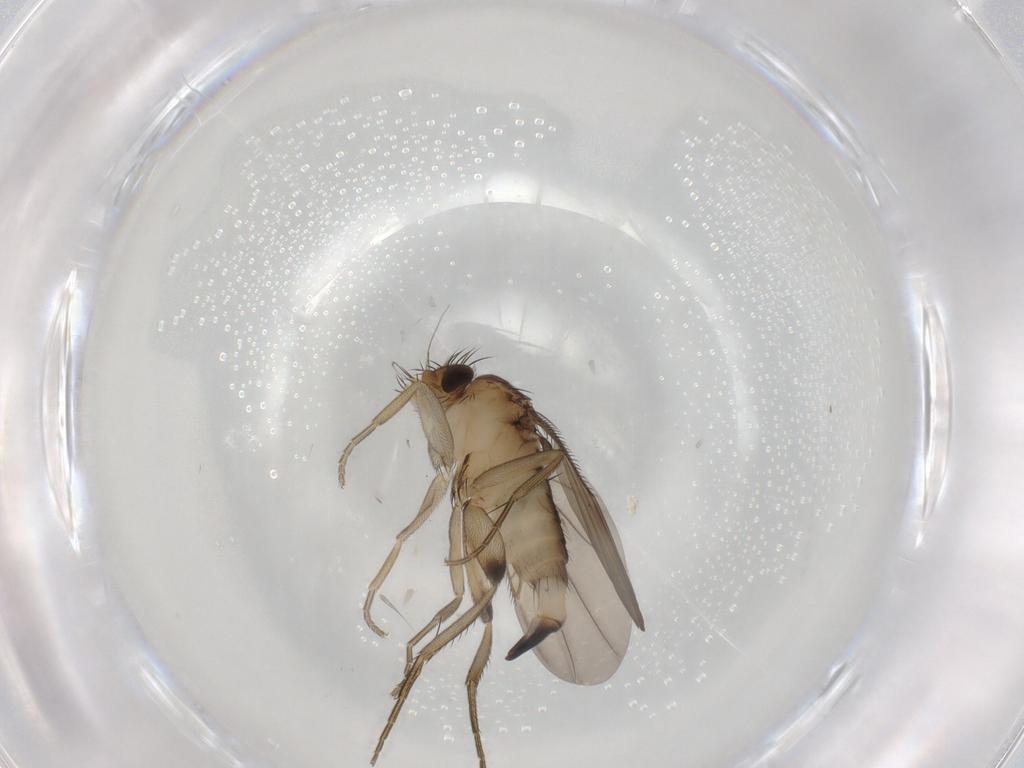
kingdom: Animalia
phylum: Arthropoda
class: Insecta
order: Diptera
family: Phoridae
